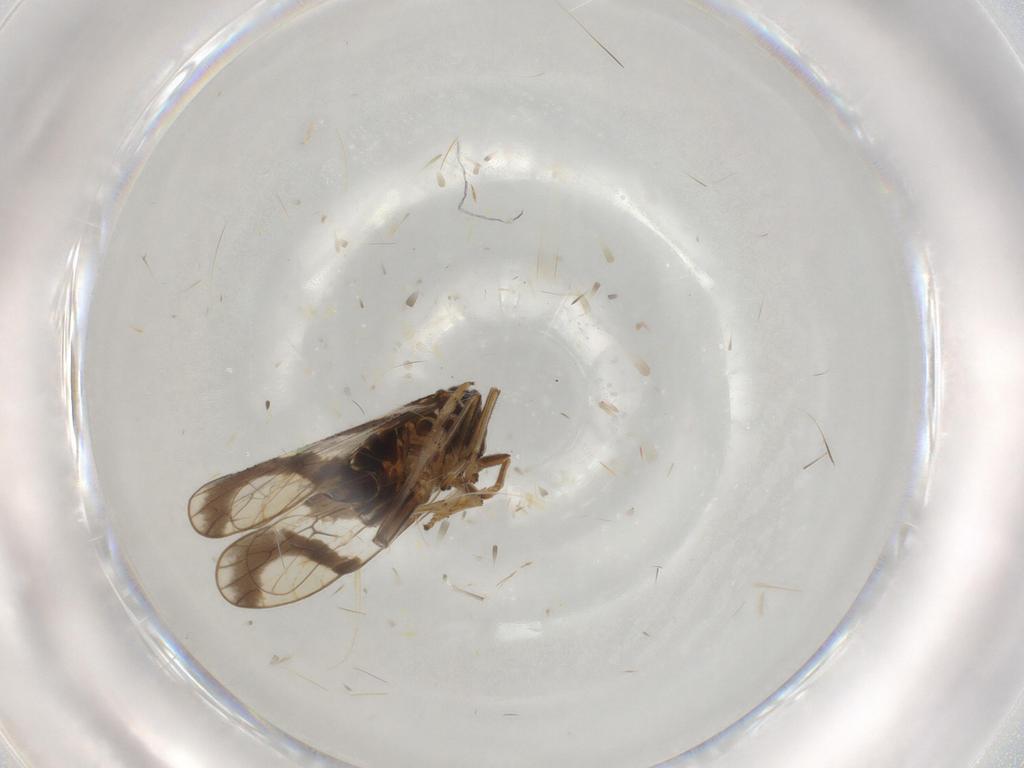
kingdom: Animalia
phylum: Arthropoda
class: Insecta
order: Hemiptera
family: Delphacidae
